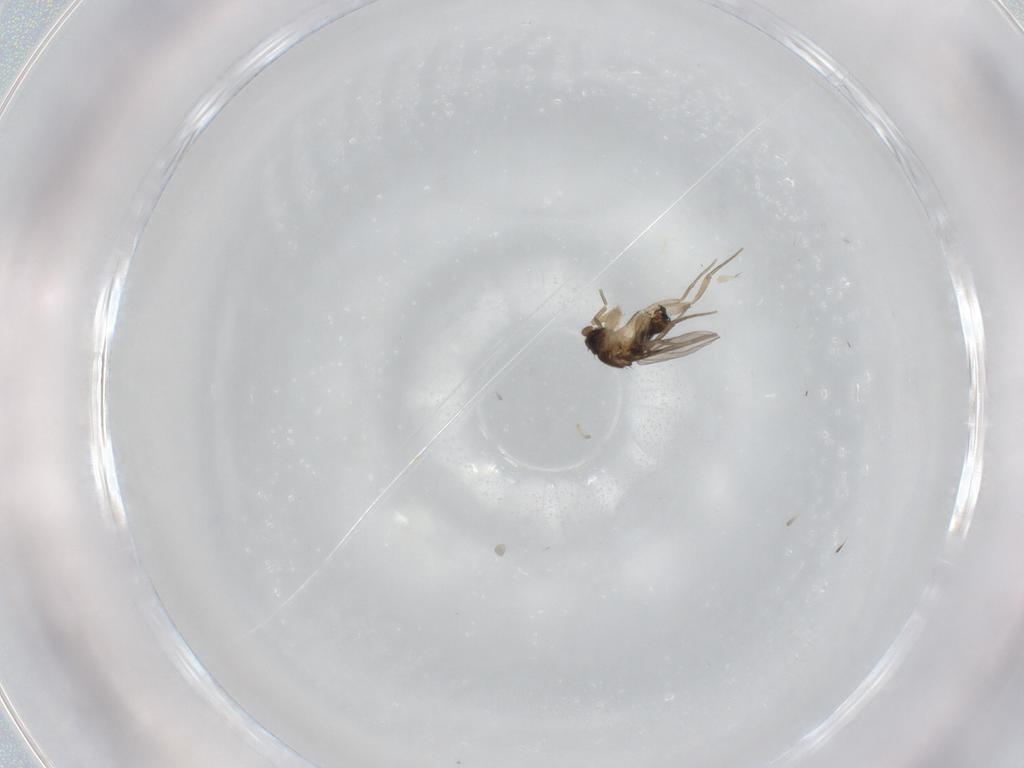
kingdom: Animalia
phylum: Arthropoda
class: Insecta
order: Diptera
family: Phoridae
